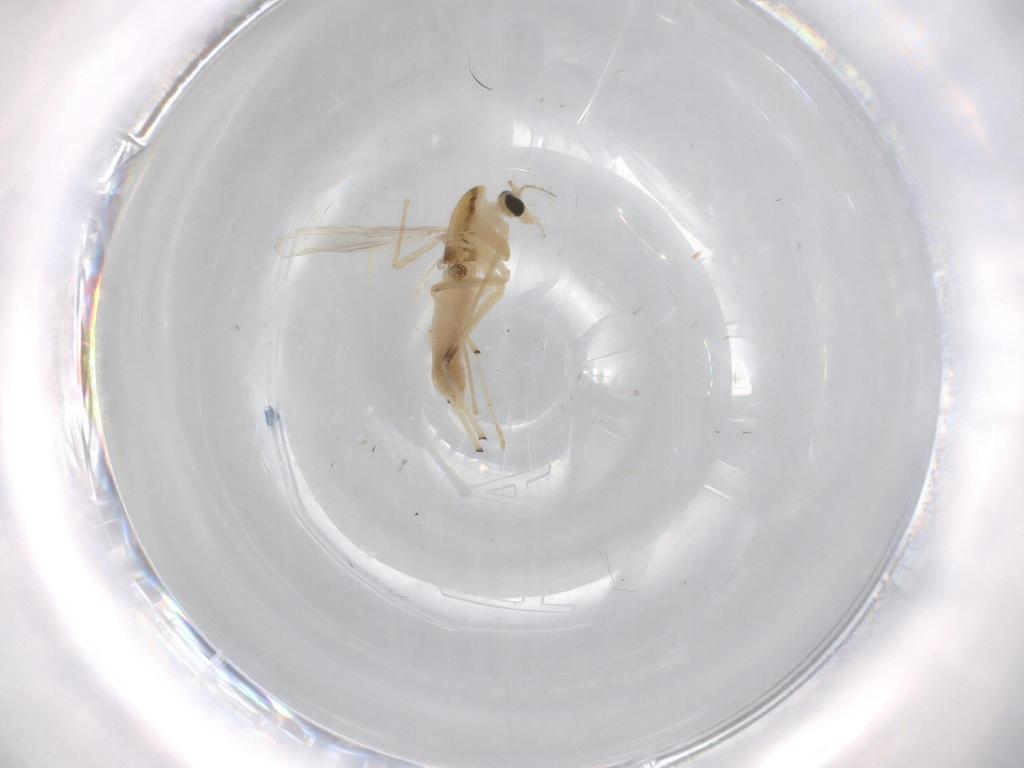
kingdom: Animalia
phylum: Arthropoda
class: Insecta
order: Diptera
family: Chironomidae
